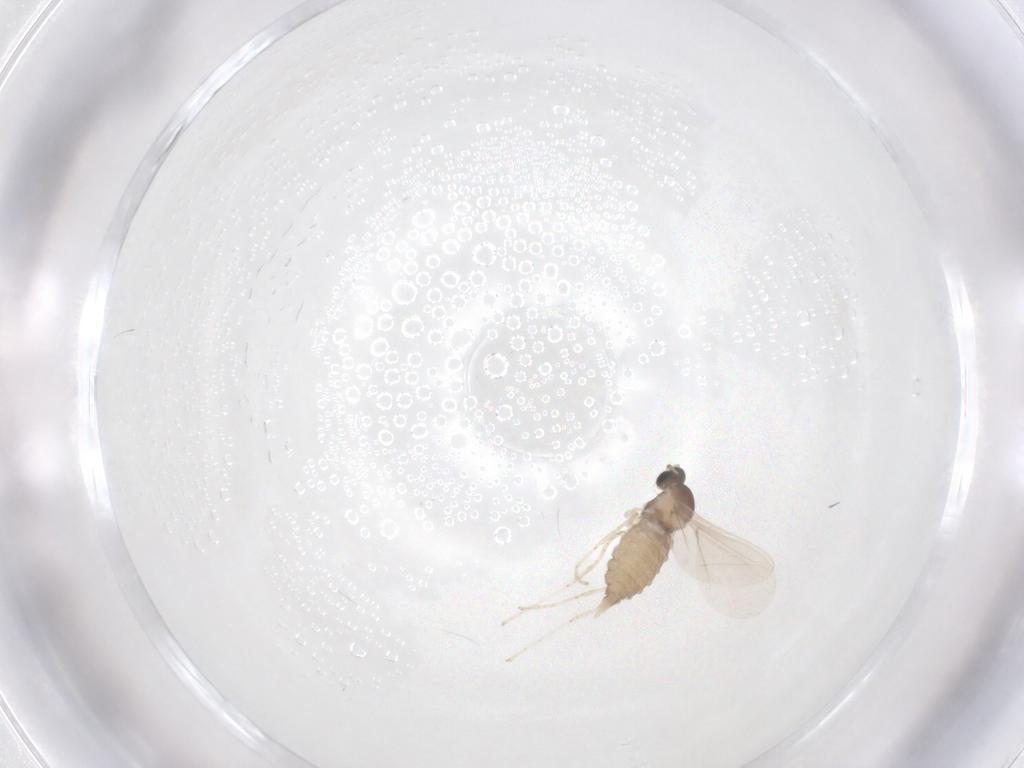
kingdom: Animalia
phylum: Arthropoda
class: Insecta
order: Diptera
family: Cecidomyiidae
